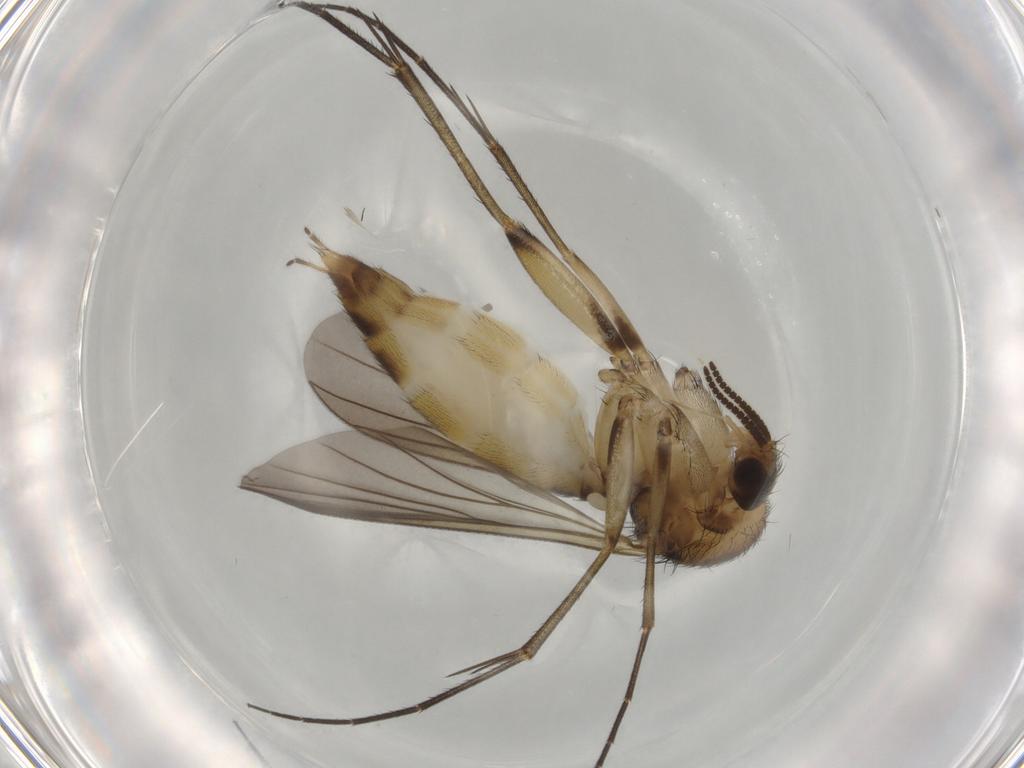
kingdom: Animalia
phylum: Arthropoda
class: Insecta
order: Diptera
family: Mycetophilidae
